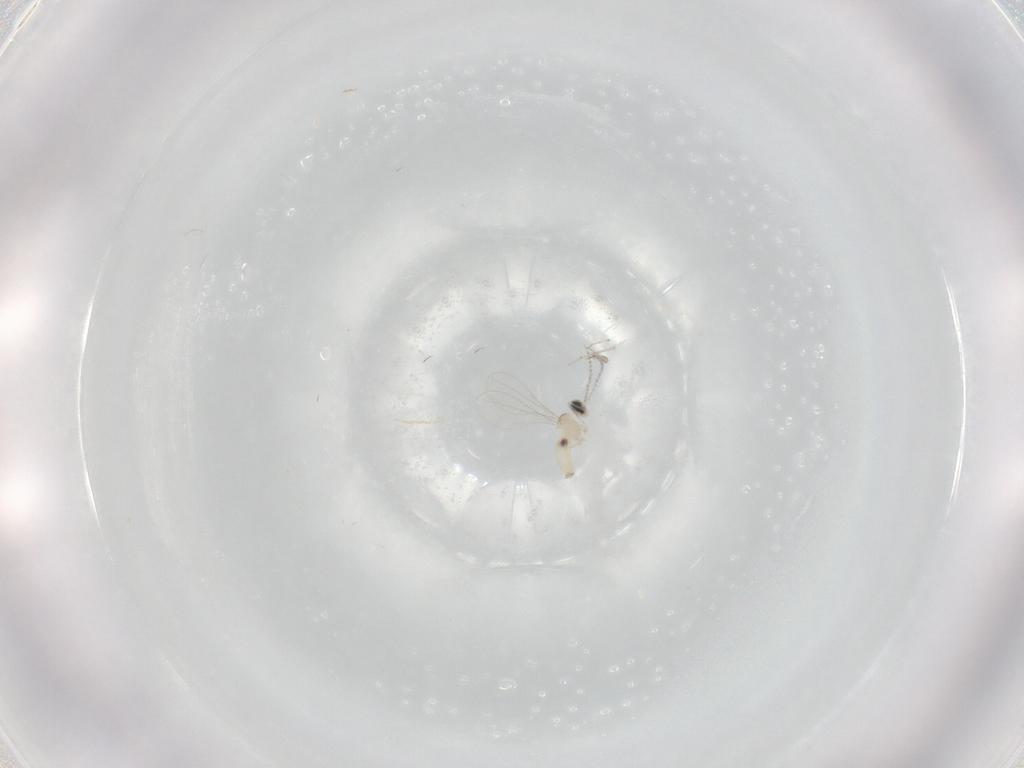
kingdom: Animalia
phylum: Arthropoda
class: Insecta
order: Diptera
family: Cecidomyiidae
